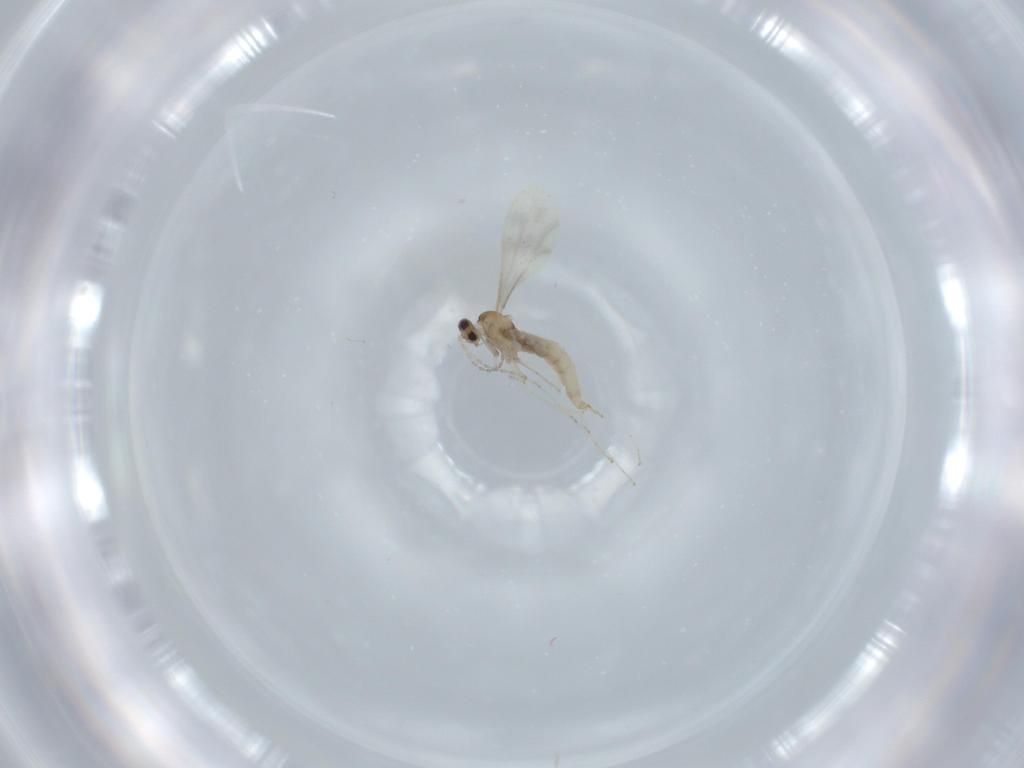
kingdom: Animalia
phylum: Arthropoda
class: Insecta
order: Diptera
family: Cecidomyiidae
